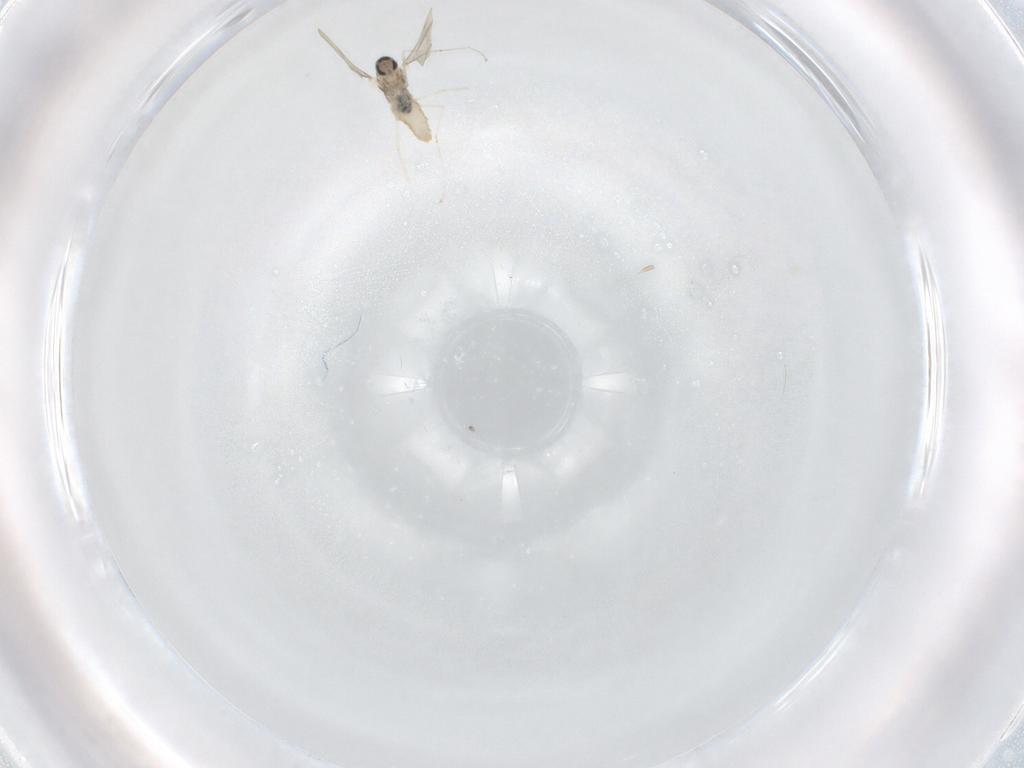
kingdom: Animalia
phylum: Arthropoda
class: Insecta
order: Diptera
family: Cecidomyiidae
